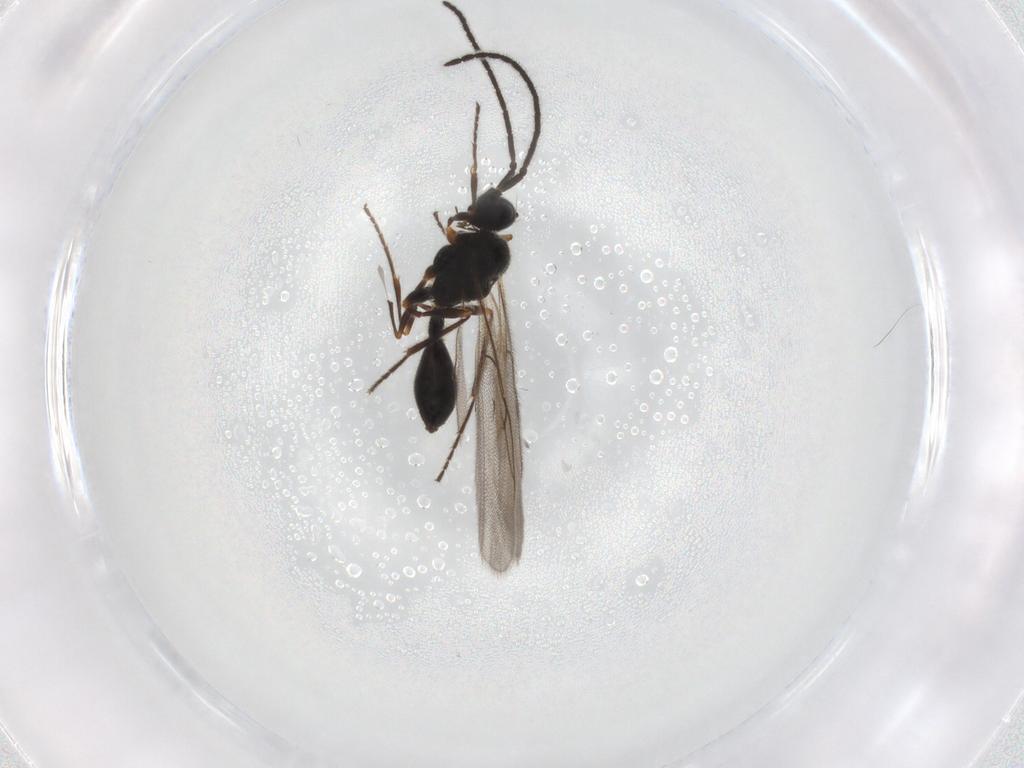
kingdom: Animalia
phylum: Arthropoda
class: Insecta
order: Hymenoptera
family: Diapriidae
